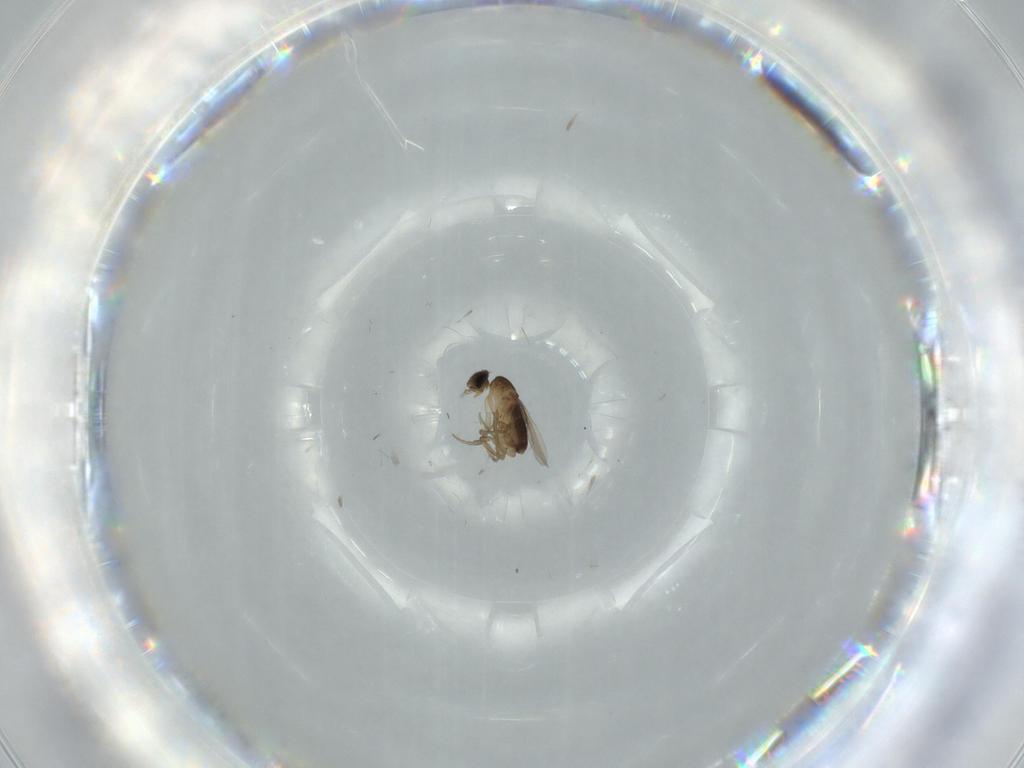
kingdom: Animalia
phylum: Arthropoda
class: Insecta
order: Diptera
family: Phoridae
